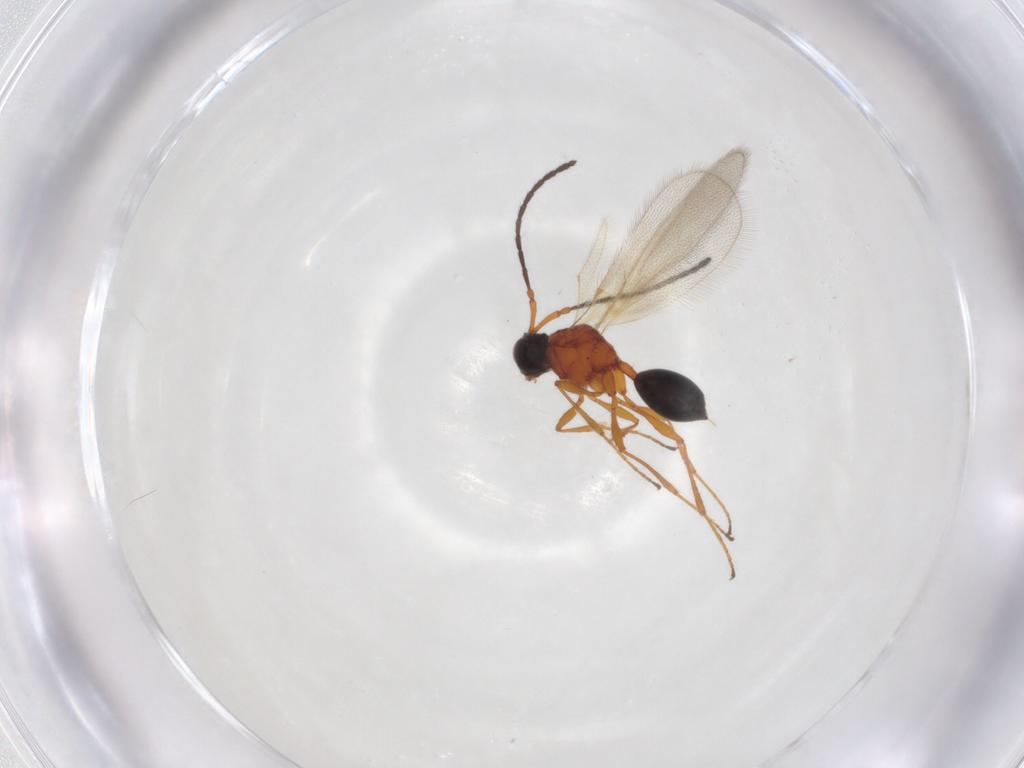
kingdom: Animalia
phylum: Arthropoda
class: Insecta
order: Hymenoptera
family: Diapriidae
